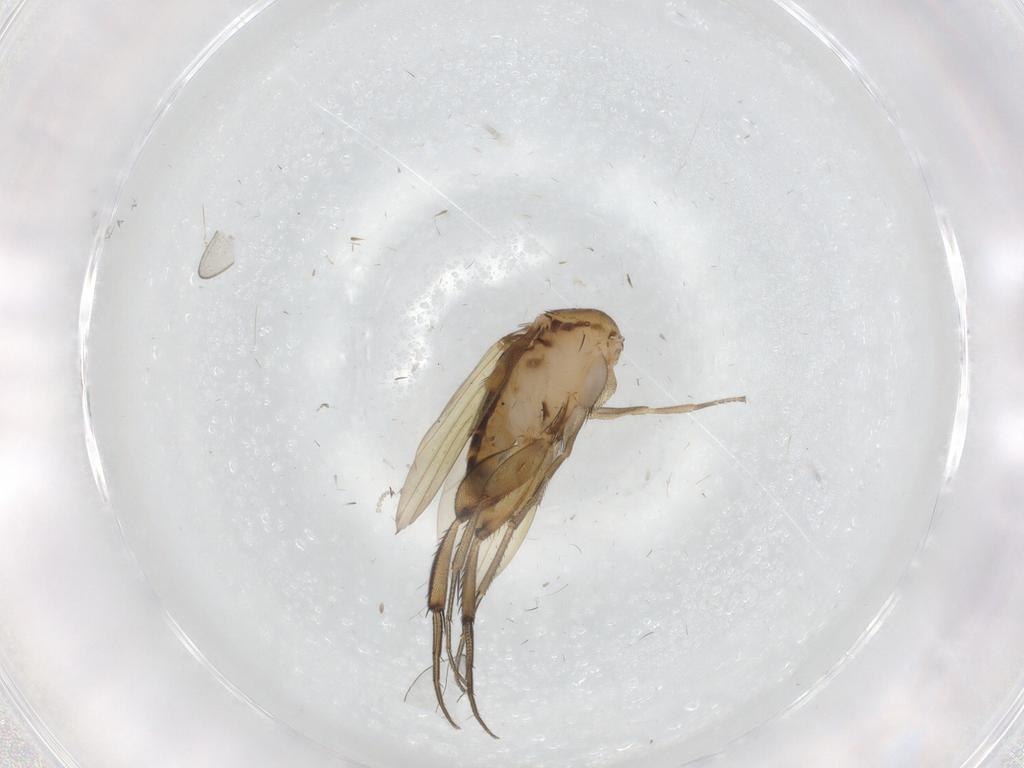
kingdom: Animalia
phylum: Arthropoda
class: Insecta
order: Diptera
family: Phoridae
